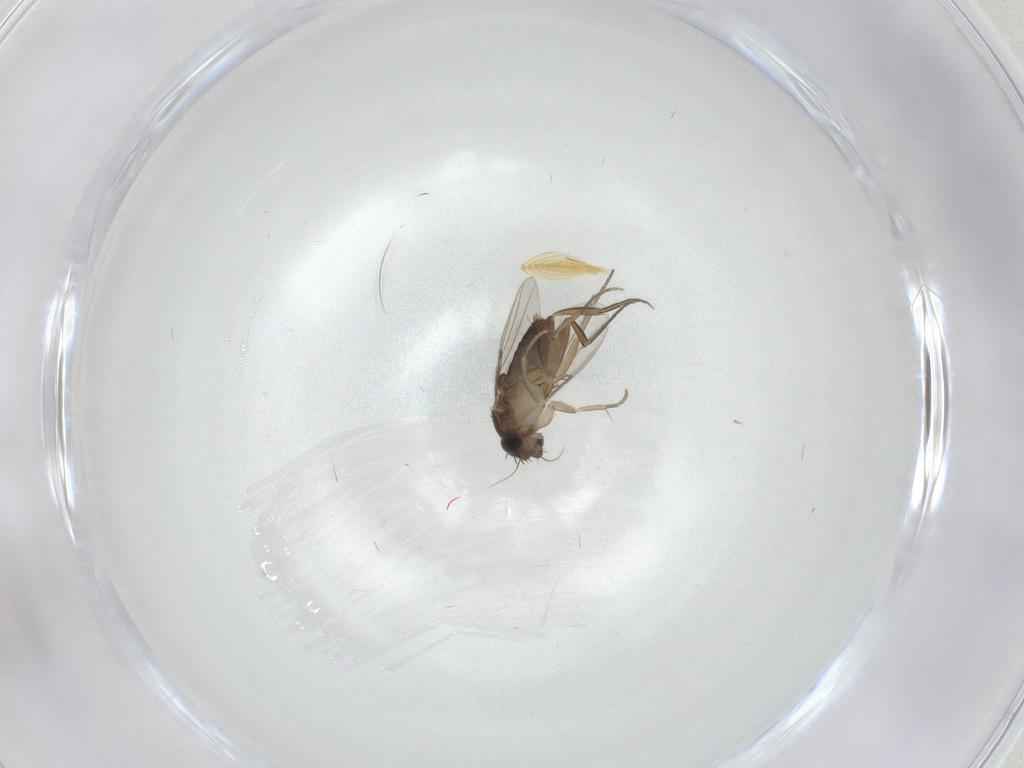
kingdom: Animalia
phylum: Arthropoda
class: Insecta
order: Diptera
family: Phoridae
